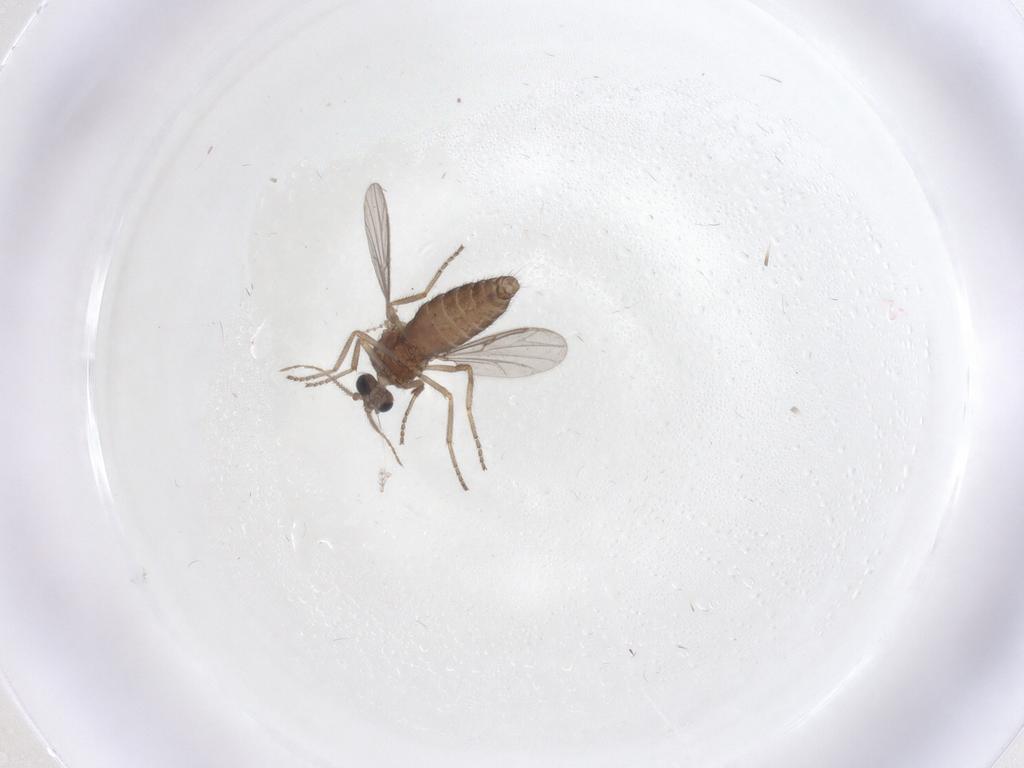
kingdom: Animalia
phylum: Arthropoda
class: Insecta
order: Diptera
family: Ceratopogonidae
